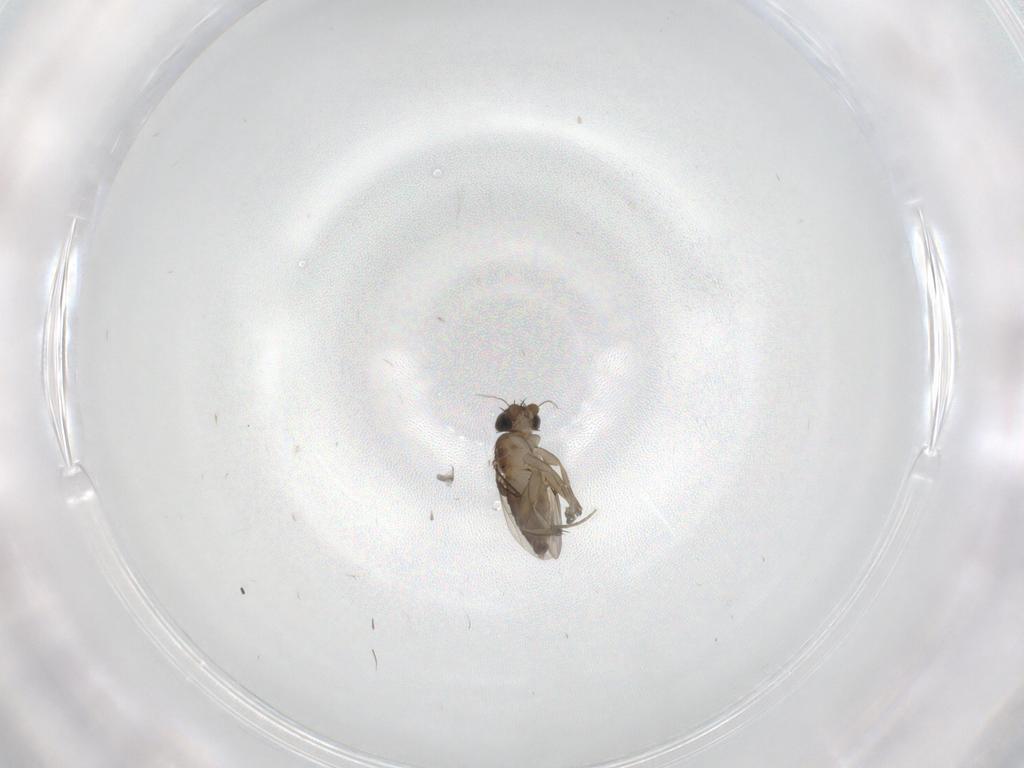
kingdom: Animalia
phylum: Arthropoda
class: Insecta
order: Diptera
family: Phoridae
